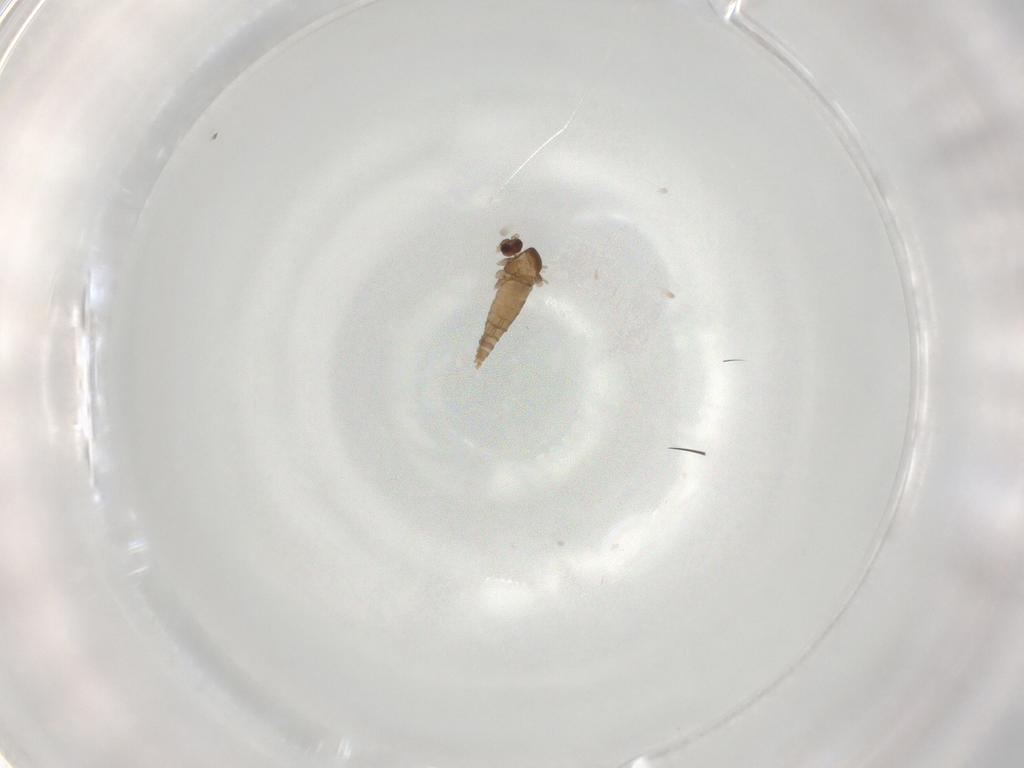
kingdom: Animalia
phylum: Arthropoda
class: Insecta
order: Diptera
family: Cecidomyiidae
